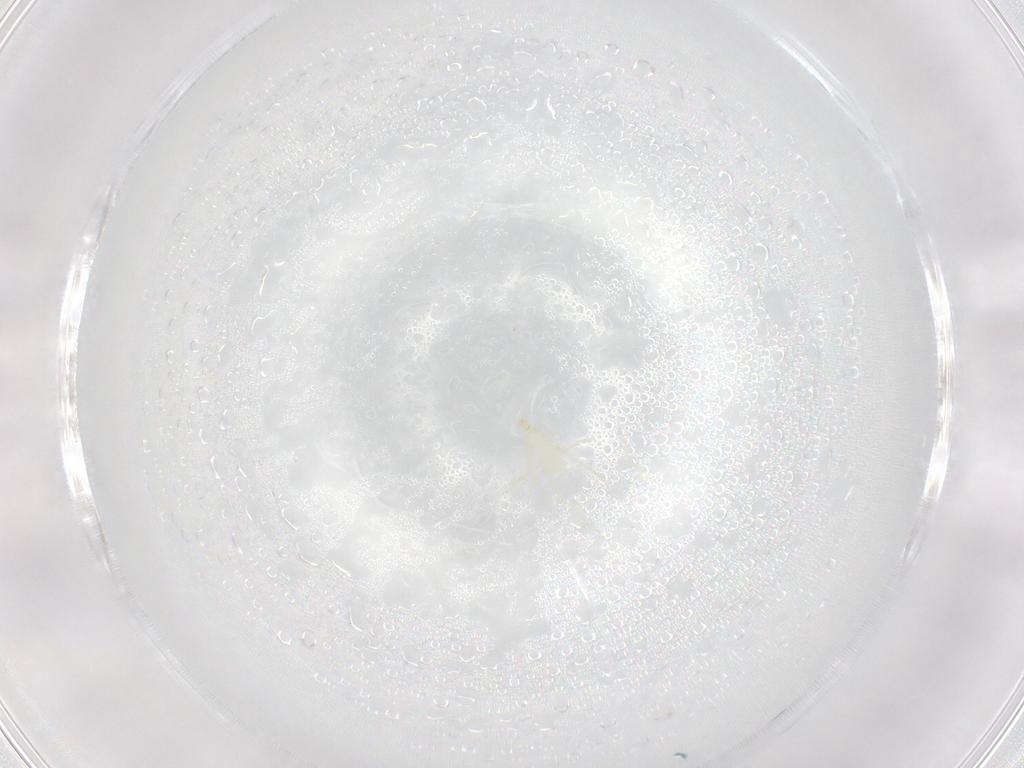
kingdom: Animalia
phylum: Arthropoda
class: Arachnida
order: Trombidiformes
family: Erythraeidae
